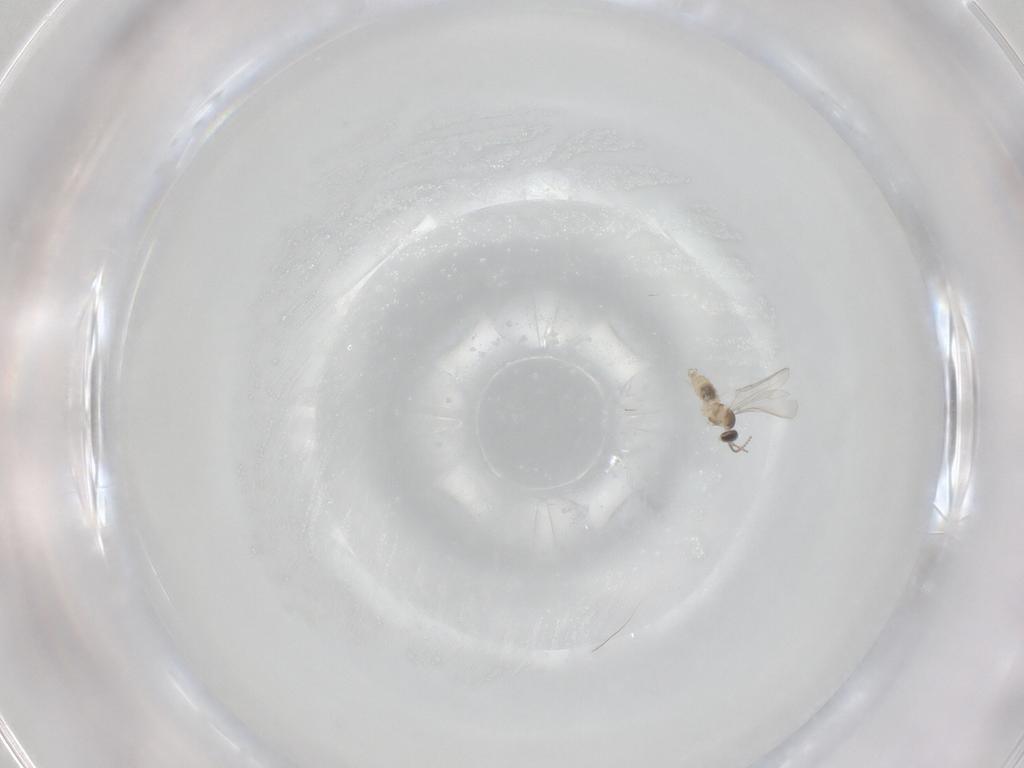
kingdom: Animalia
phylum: Arthropoda
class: Insecta
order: Diptera
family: Cecidomyiidae
